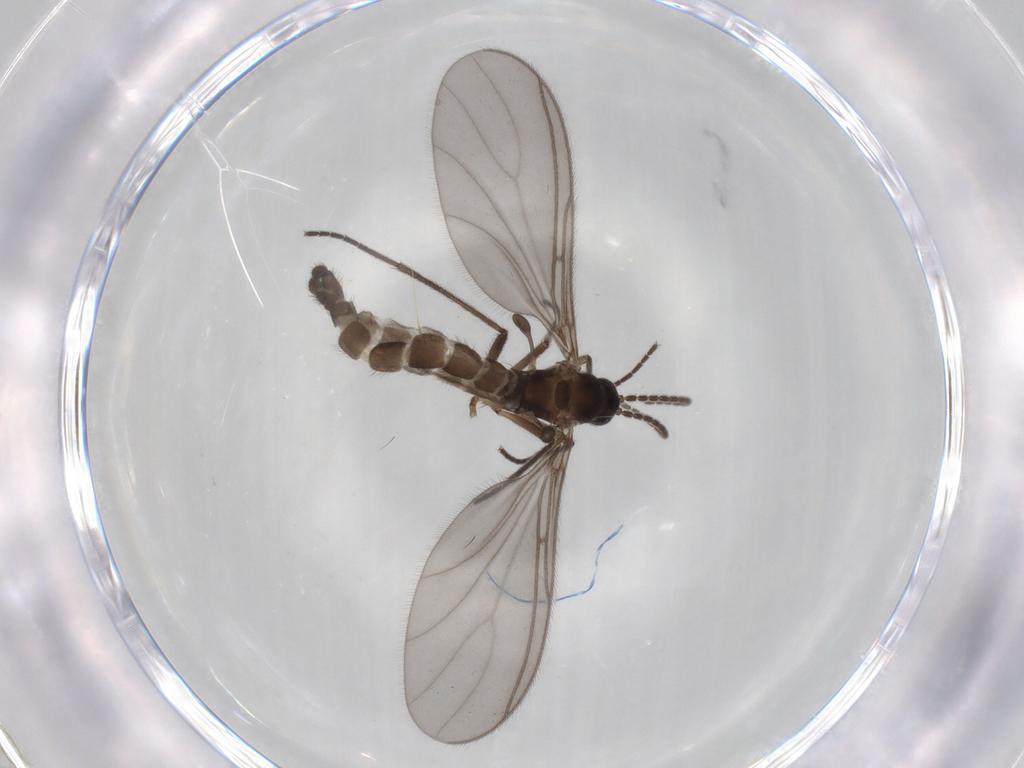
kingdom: Animalia
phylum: Arthropoda
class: Insecta
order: Diptera
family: Sciaridae
